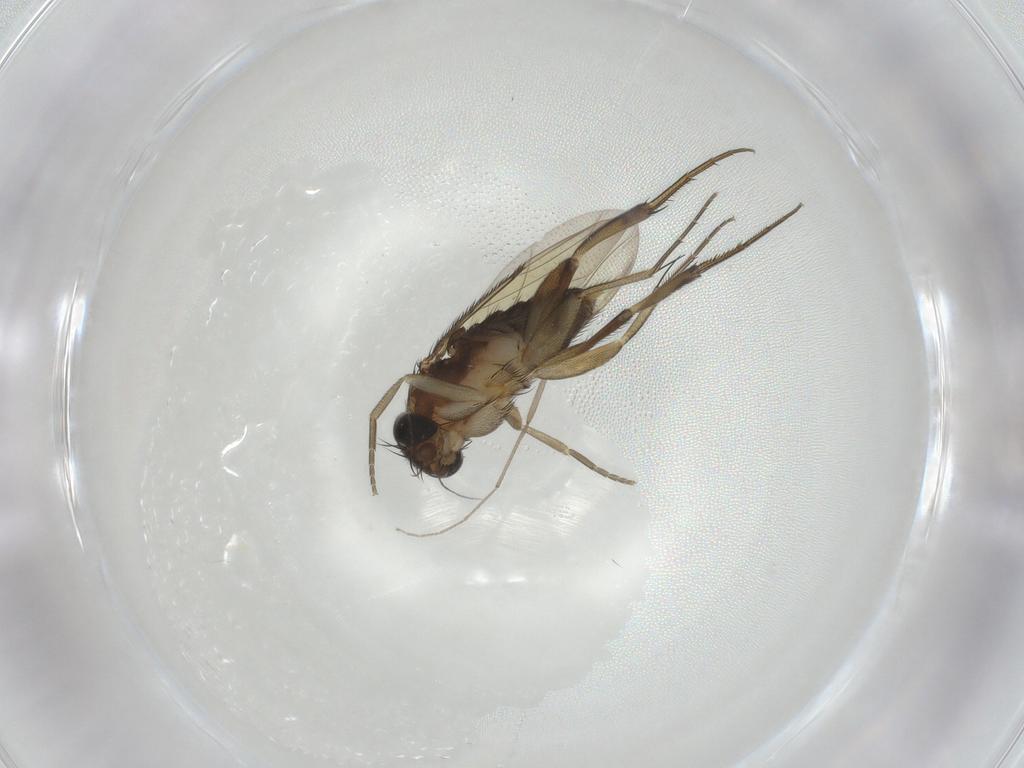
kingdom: Animalia
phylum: Arthropoda
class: Insecta
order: Diptera
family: Phoridae
